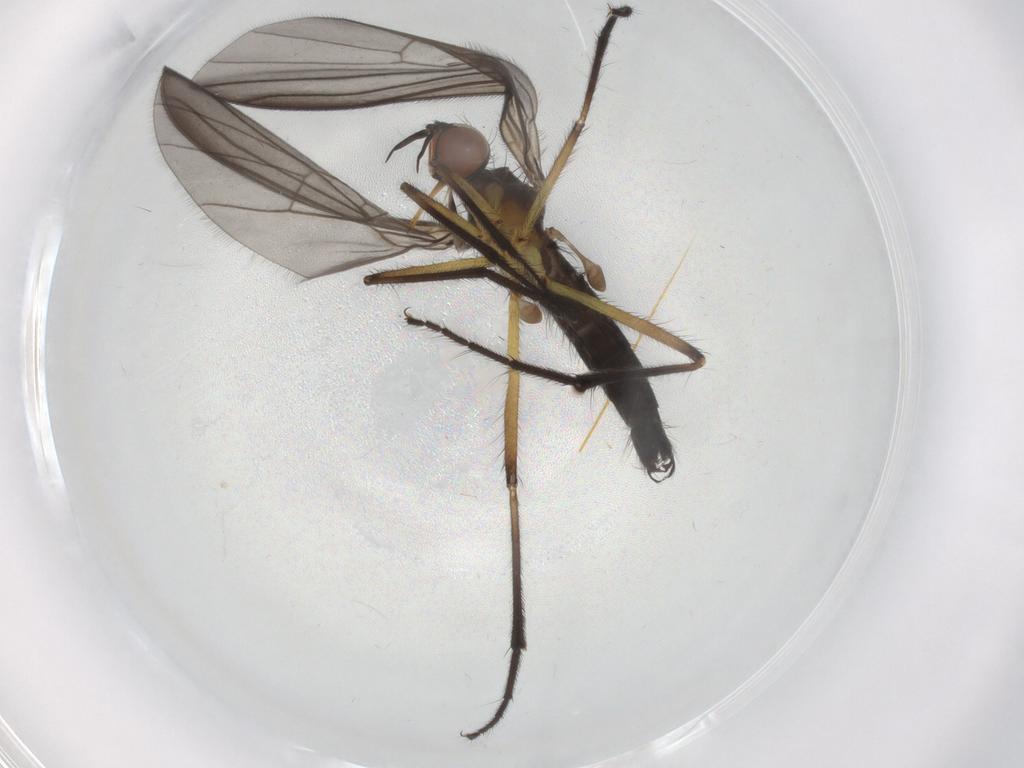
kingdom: Animalia
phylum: Arthropoda
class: Insecta
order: Diptera
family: Empididae
